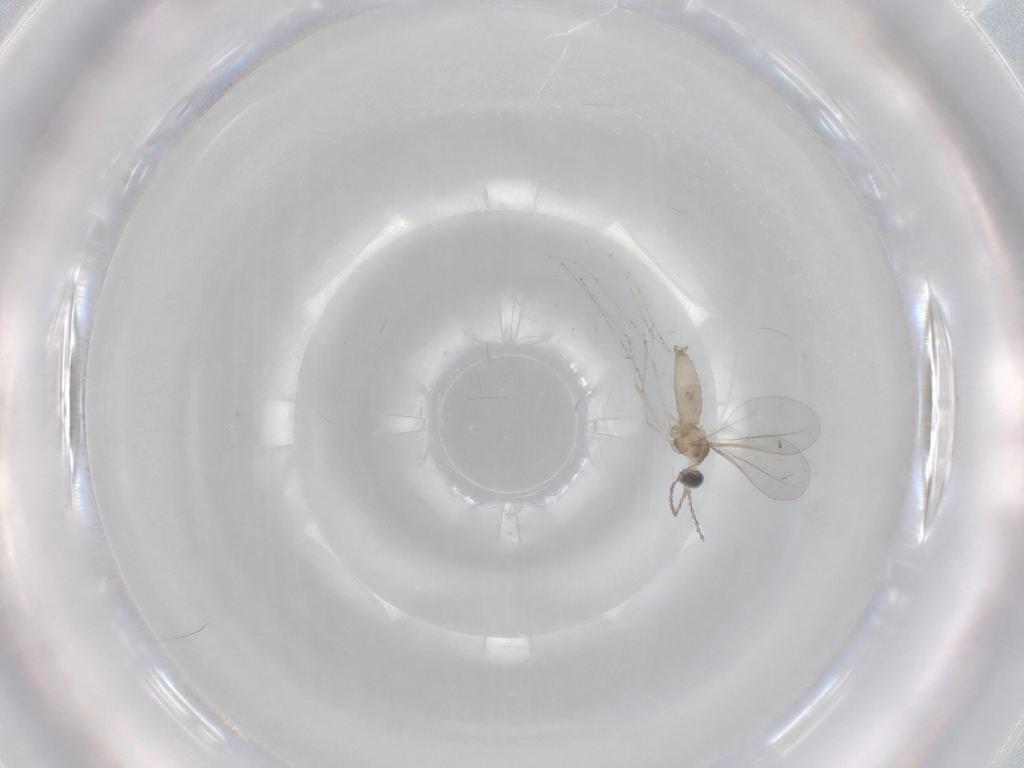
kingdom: Animalia
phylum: Arthropoda
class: Insecta
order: Diptera
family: Cecidomyiidae
